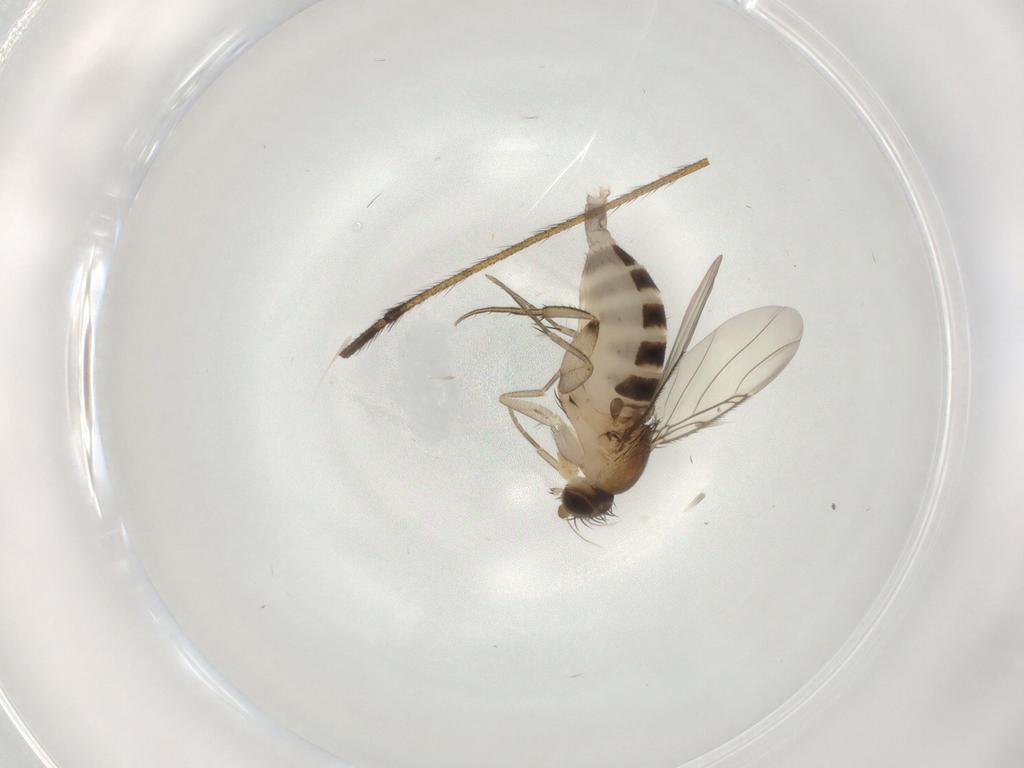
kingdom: Animalia
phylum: Arthropoda
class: Insecta
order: Diptera
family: Phoridae
